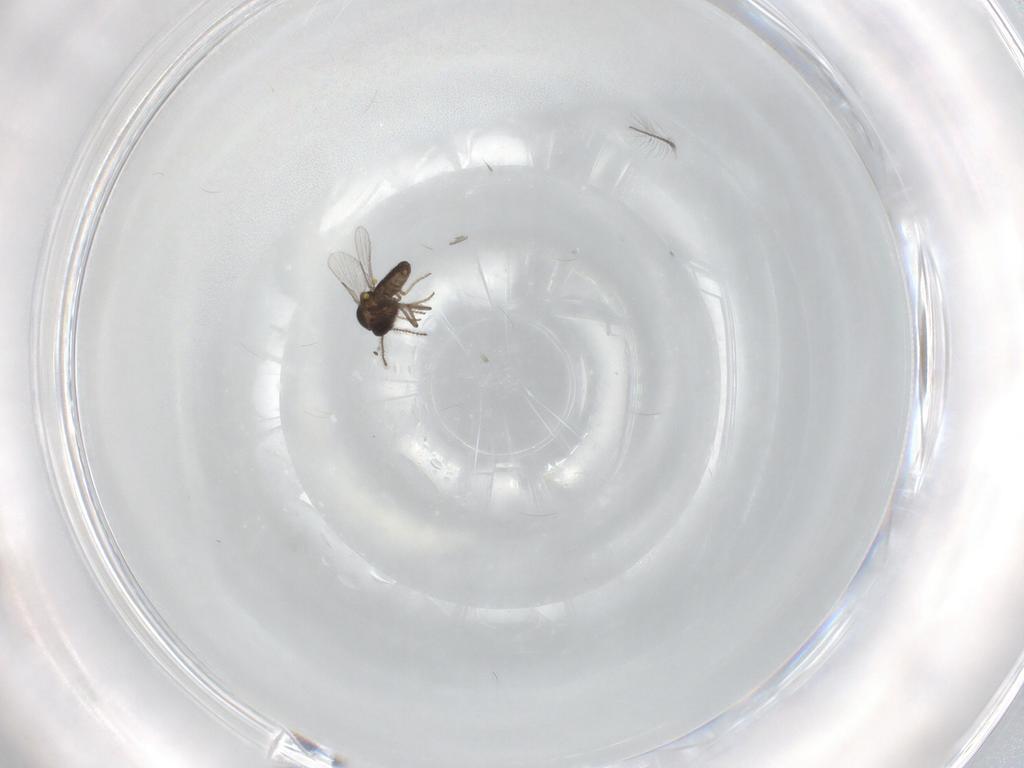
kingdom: Animalia
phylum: Arthropoda
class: Insecta
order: Diptera
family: Ceratopogonidae
